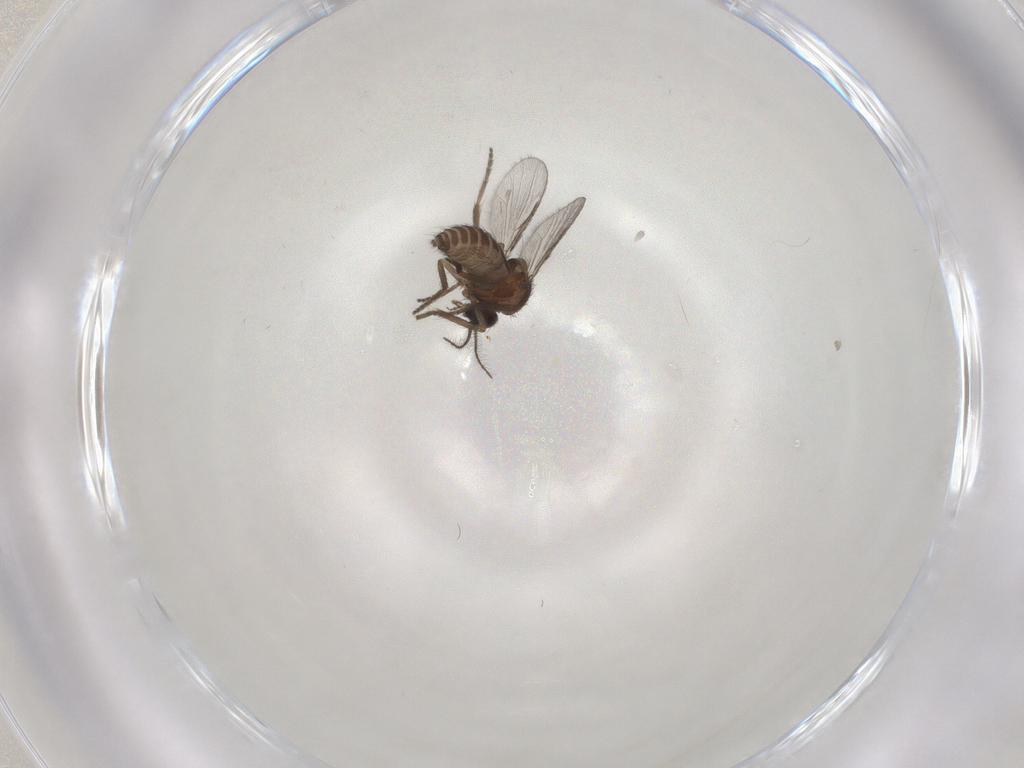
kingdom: Animalia
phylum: Arthropoda
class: Insecta
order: Diptera
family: Ceratopogonidae
